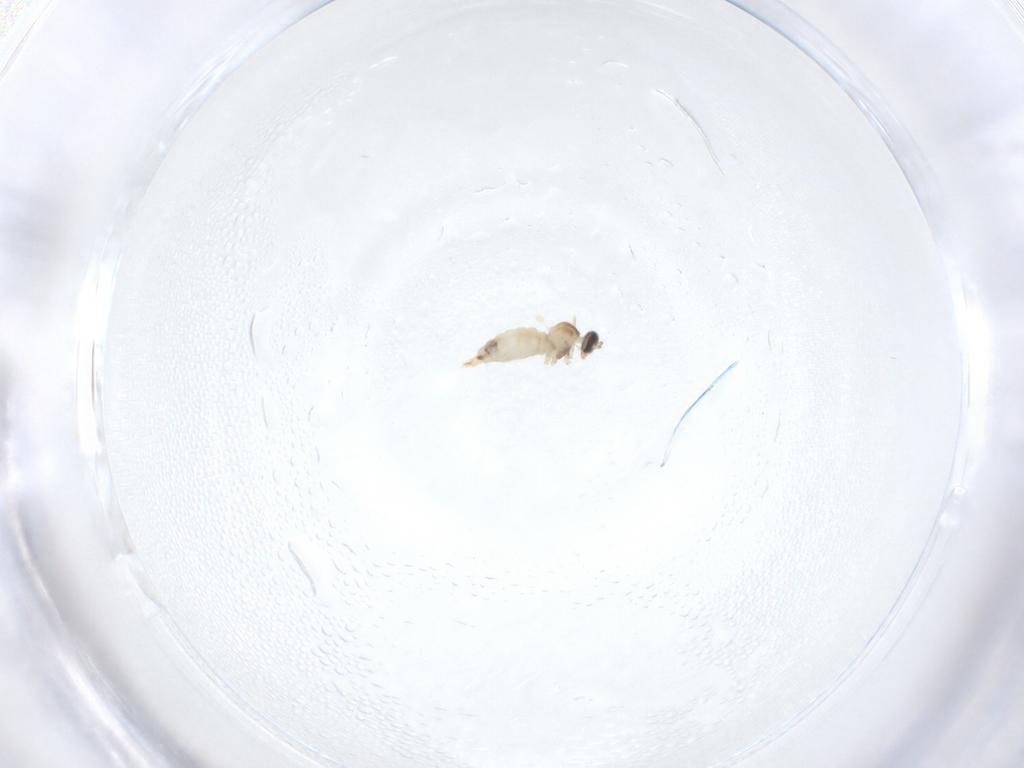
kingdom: Animalia
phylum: Arthropoda
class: Insecta
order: Diptera
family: Cecidomyiidae
